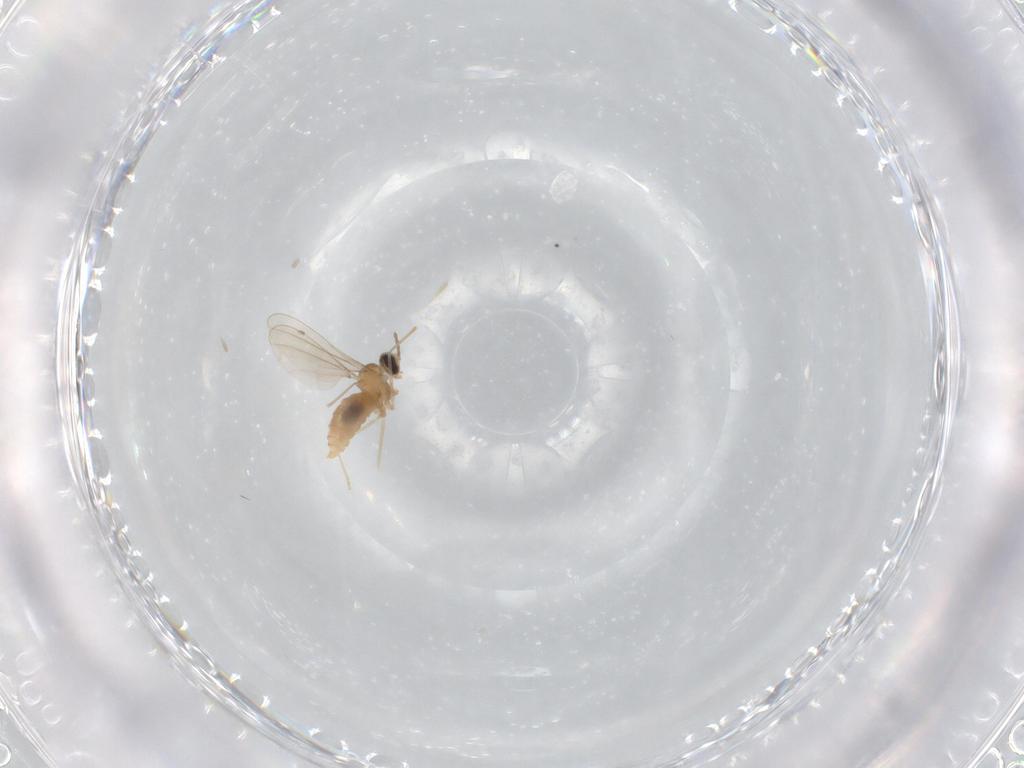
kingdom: Animalia
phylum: Arthropoda
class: Insecta
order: Diptera
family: Cecidomyiidae
